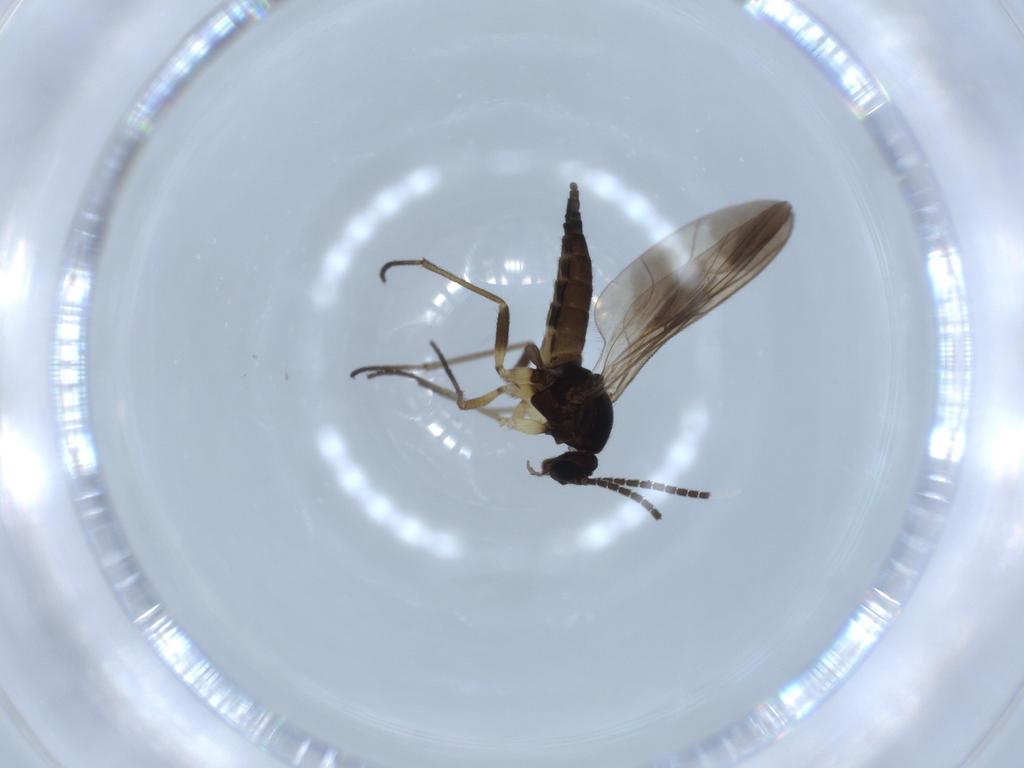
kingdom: Animalia
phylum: Arthropoda
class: Insecta
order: Diptera
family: Sciaridae
